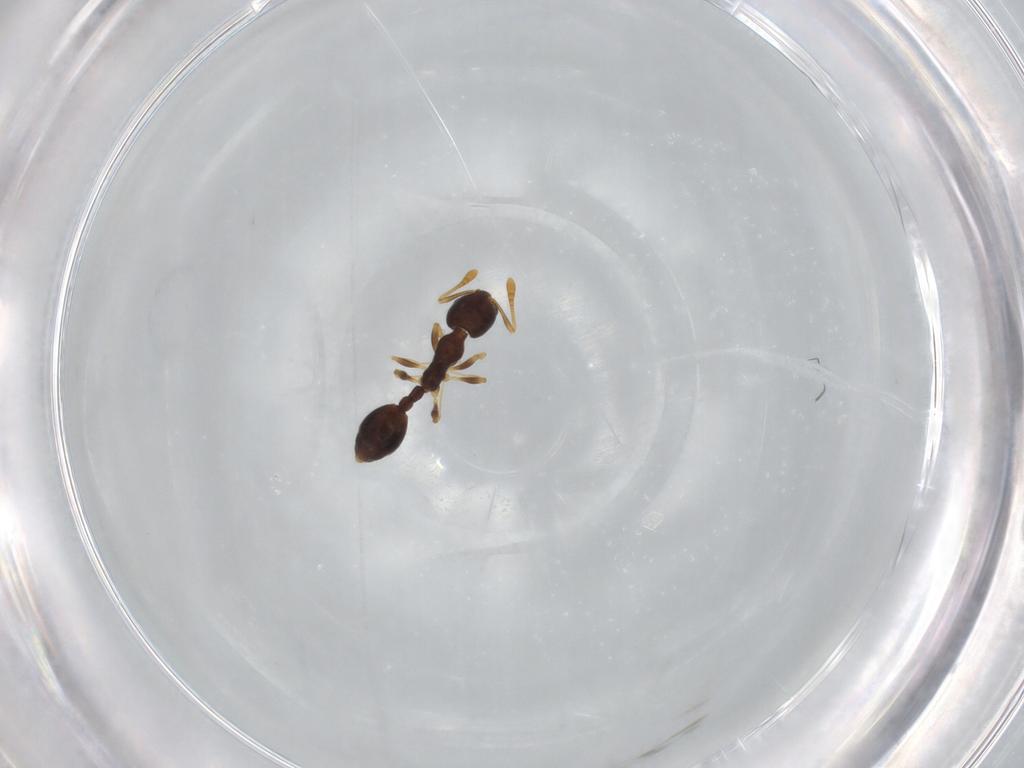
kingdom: Animalia
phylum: Arthropoda
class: Insecta
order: Hymenoptera
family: Formicidae
